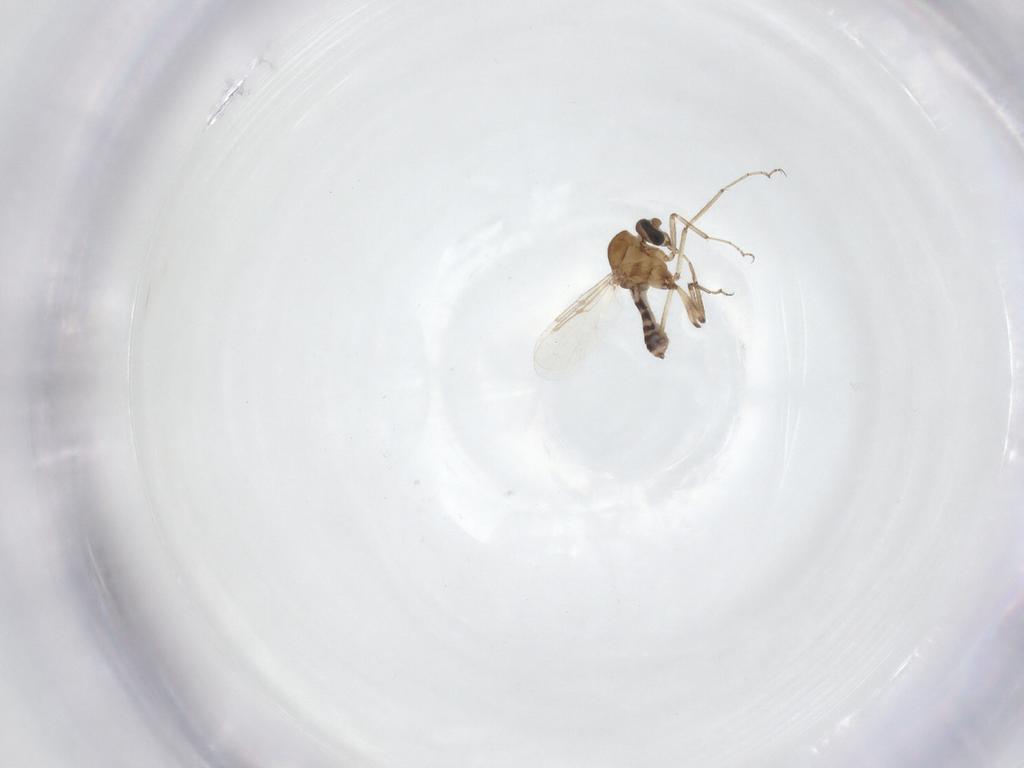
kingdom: Animalia
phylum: Arthropoda
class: Insecta
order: Diptera
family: Ceratopogonidae
